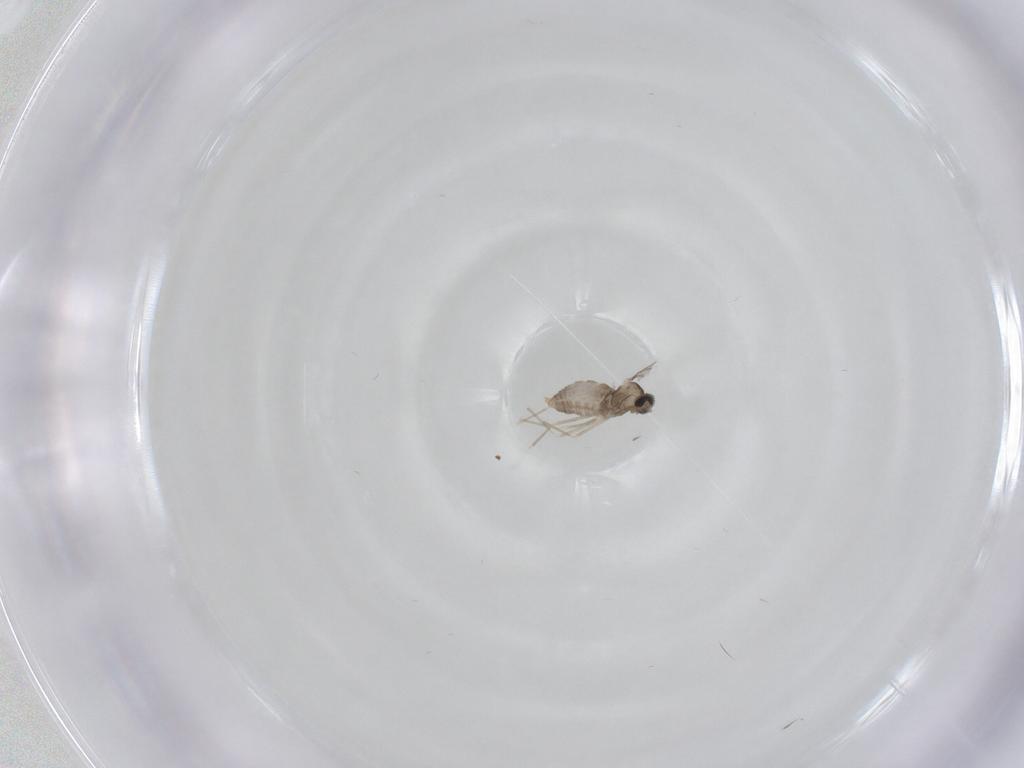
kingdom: Animalia
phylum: Arthropoda
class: Insecta
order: Diptera
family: Cecidomyiidae
